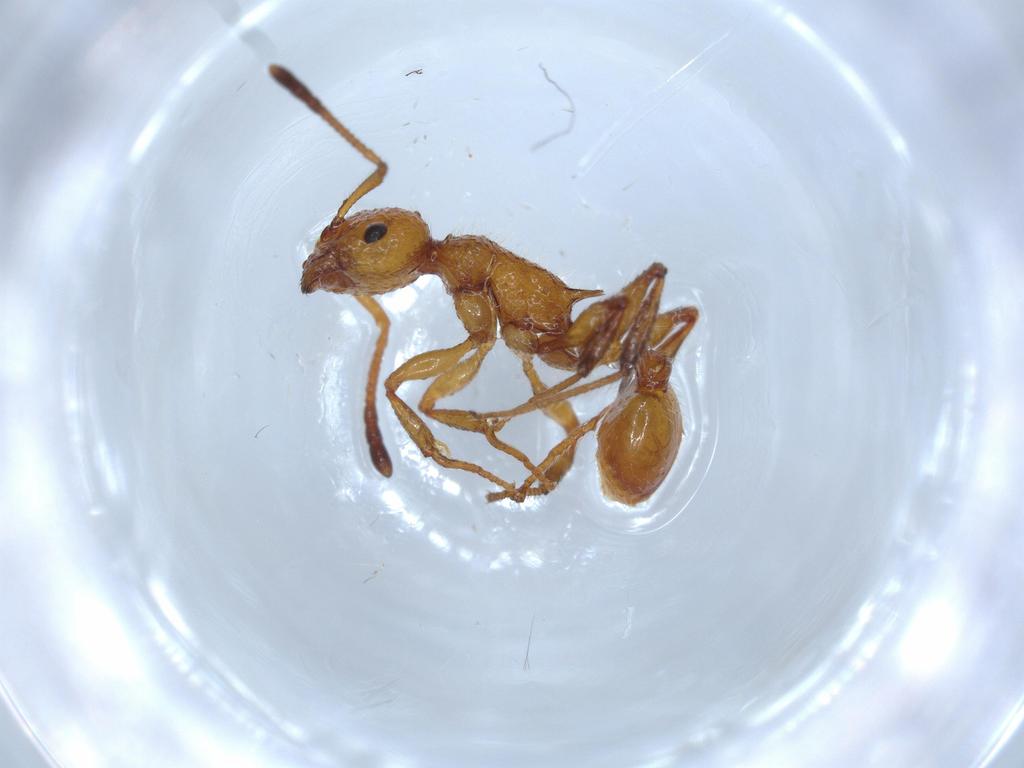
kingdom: Animalia
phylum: Arthropoda
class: Insecta
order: Hymenoptera
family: Formicidae
